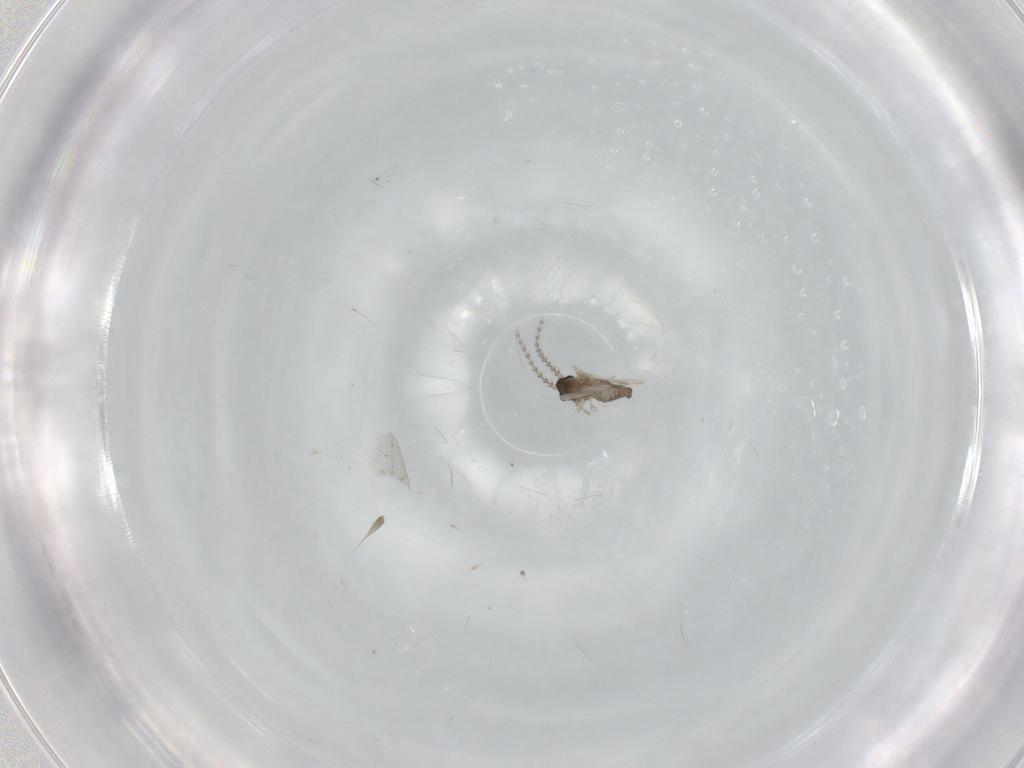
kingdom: Animalia
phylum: Arthropoda
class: Insecta
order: Diptera
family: Cecidomyiidae
